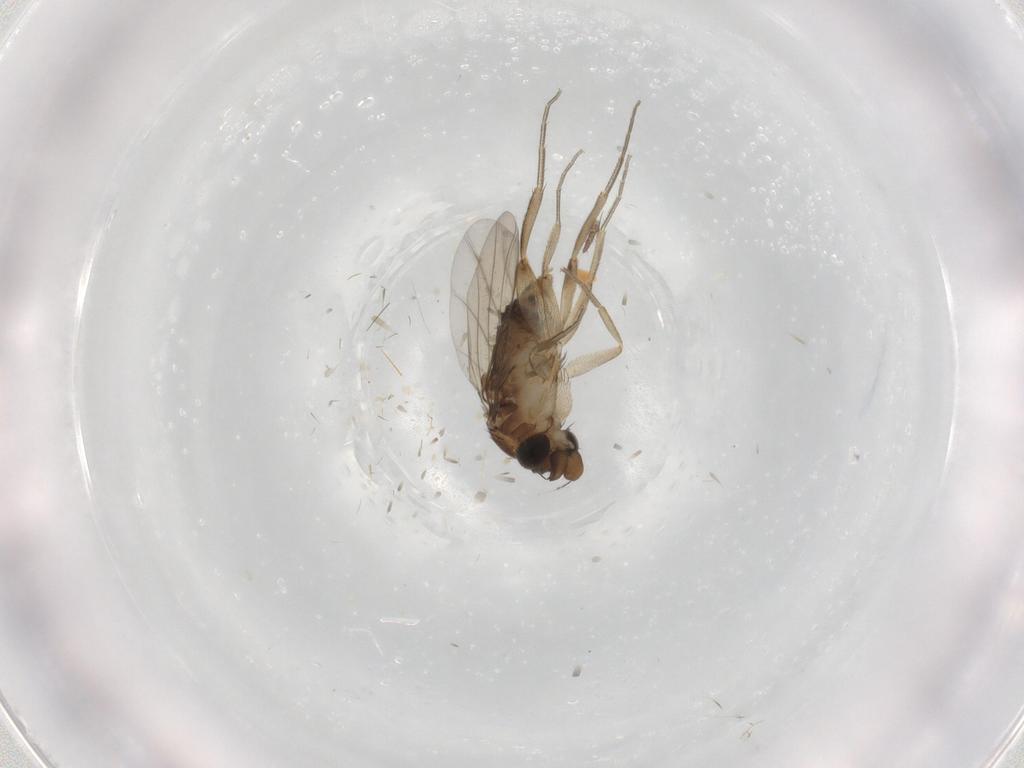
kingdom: Animalia
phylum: Arthropoda
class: Insecta
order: Diptera
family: Phoridae
